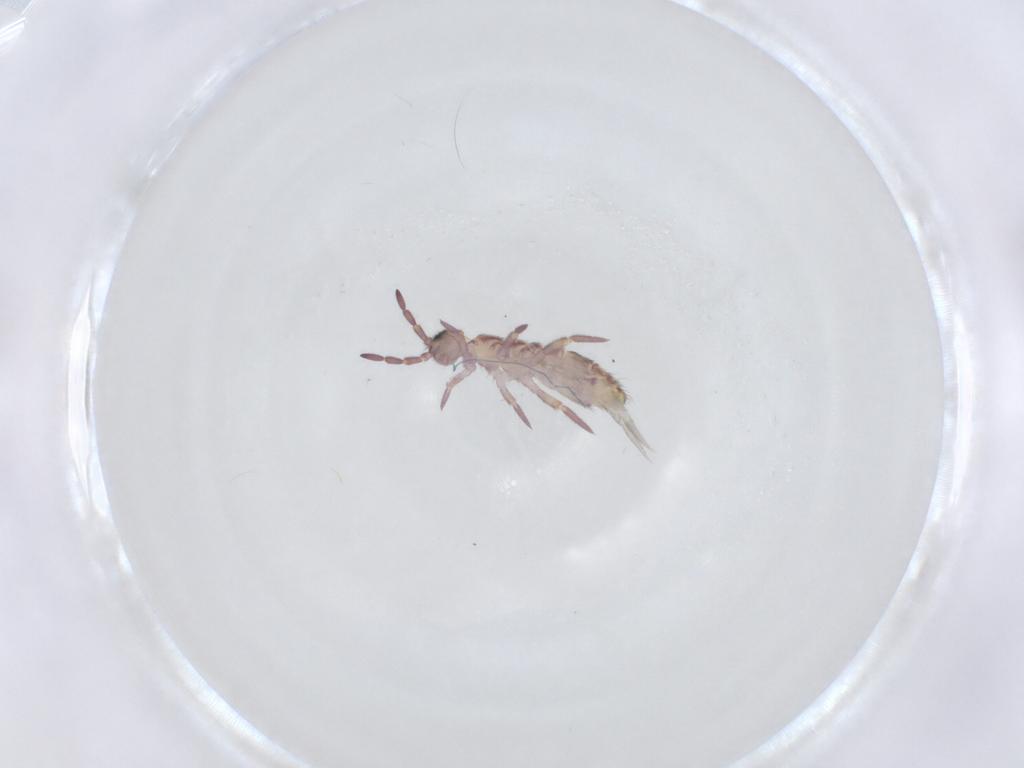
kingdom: Animalia
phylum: Arthropoda
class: Collembola
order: Entomobryomorpha
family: Isotomidae
